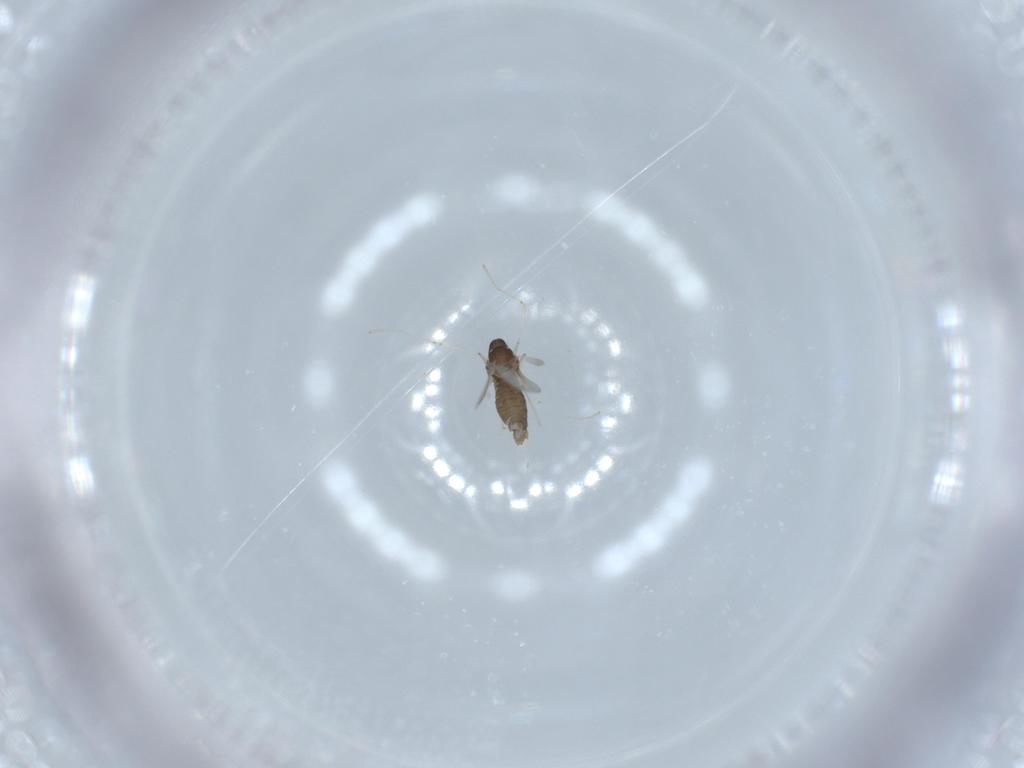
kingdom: Animalia
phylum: Arthropoda
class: Insecta
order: Diptera
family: Cecidomyiidae
